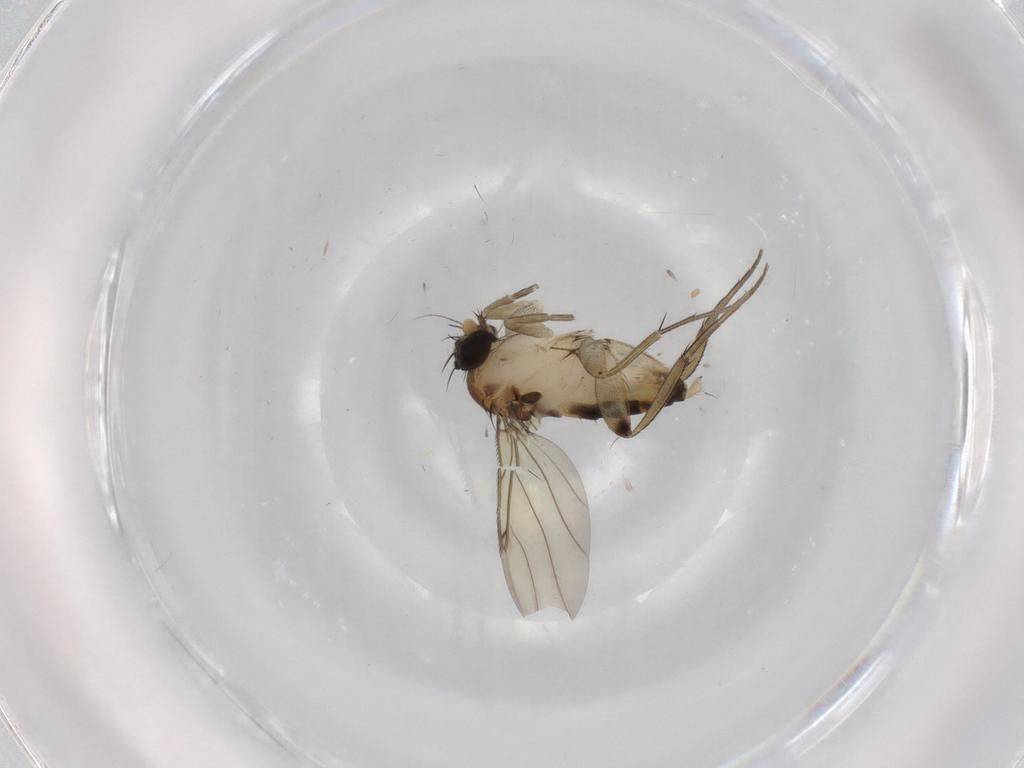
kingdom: Animalia
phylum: Arthropoda
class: Insecta
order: Diptera
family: Phoridae
